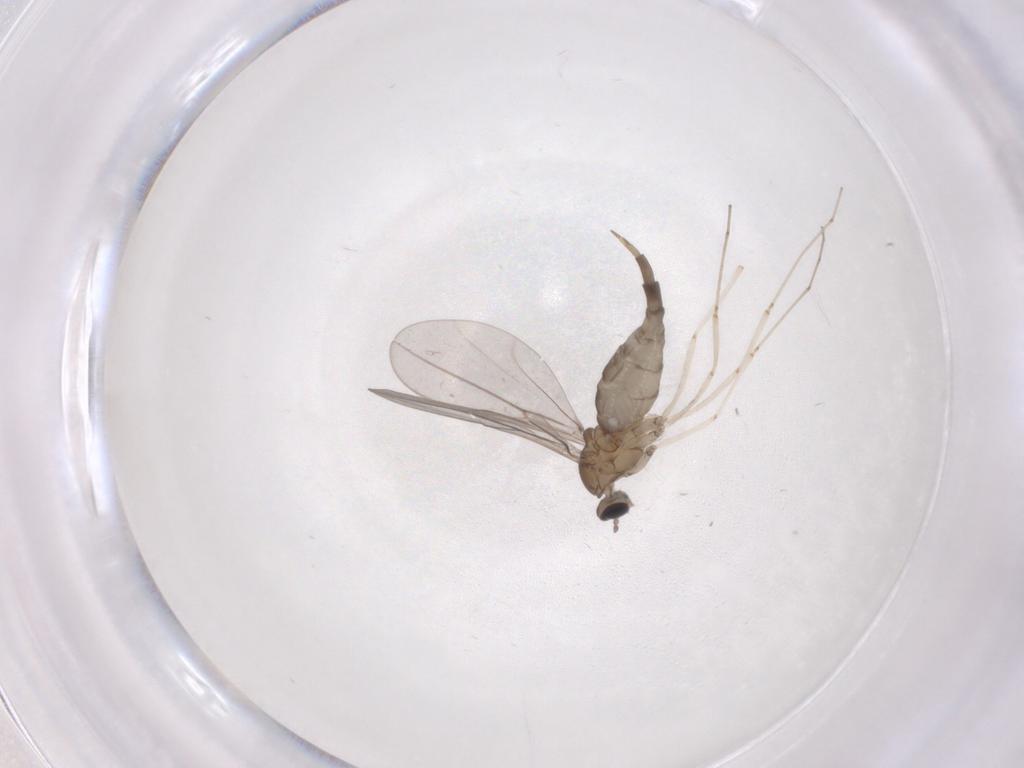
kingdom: Animalia
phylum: Arthropoda
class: Insecta
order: Diptera
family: Cecidomyiidae
